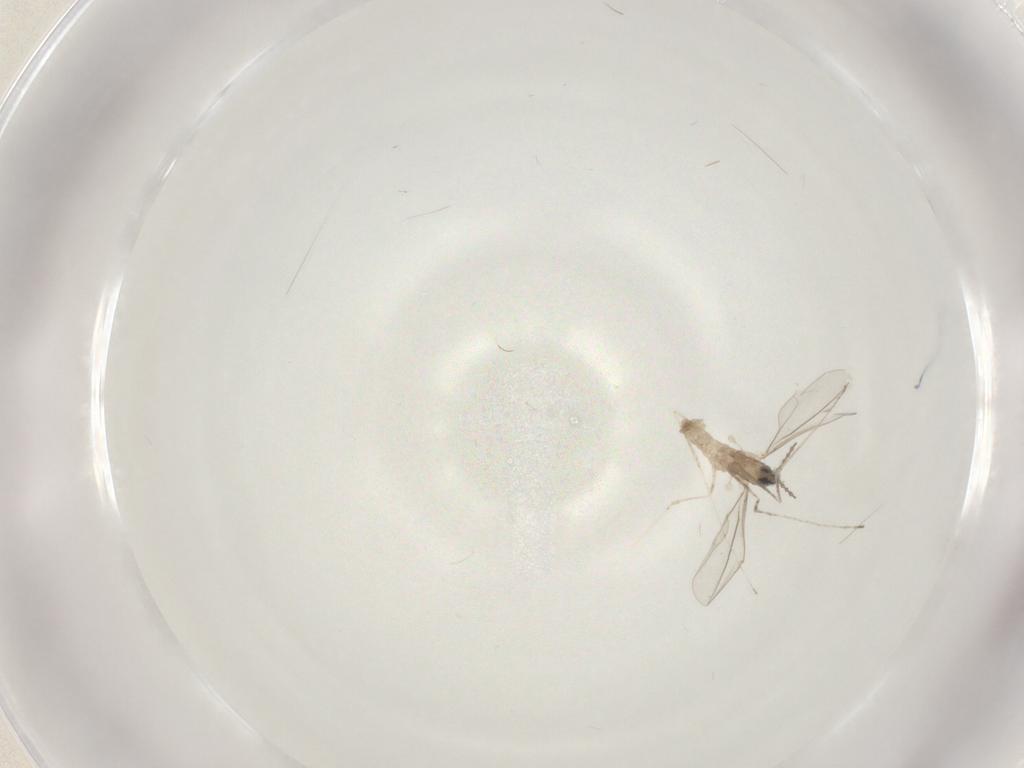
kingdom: Animalia
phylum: Arthropoda
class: Insecta
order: Diptera
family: Cecidomyiidae
